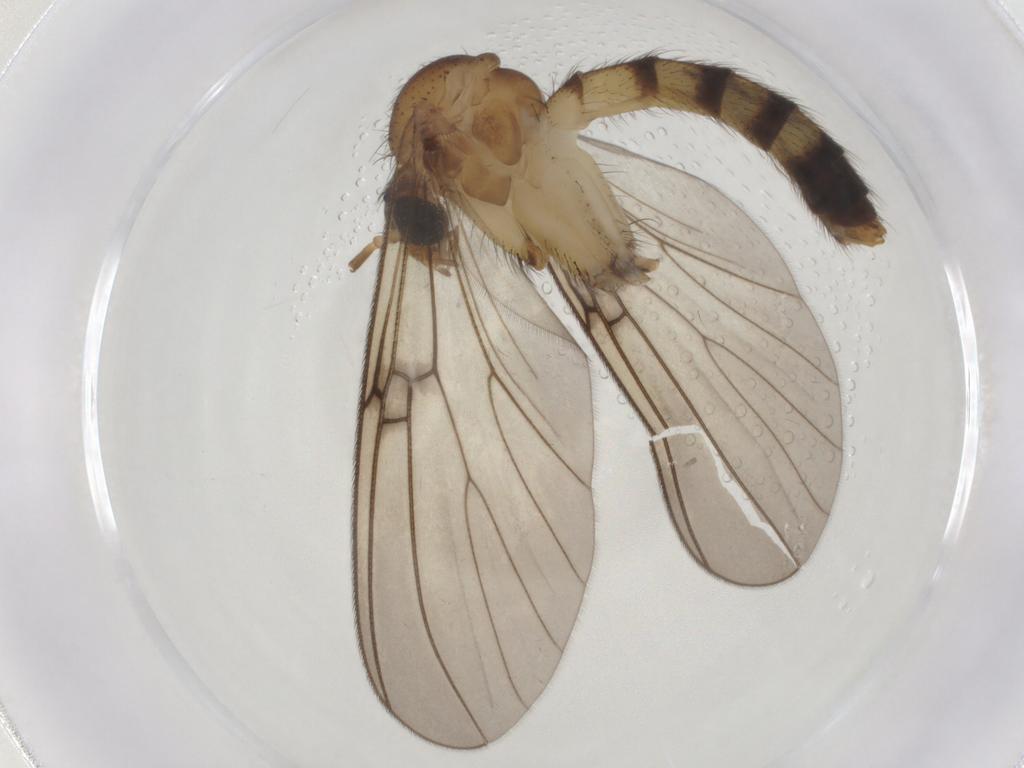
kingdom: Animalia
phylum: Arthropoda
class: Insecta
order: Diptera
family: Mycetophilidae
